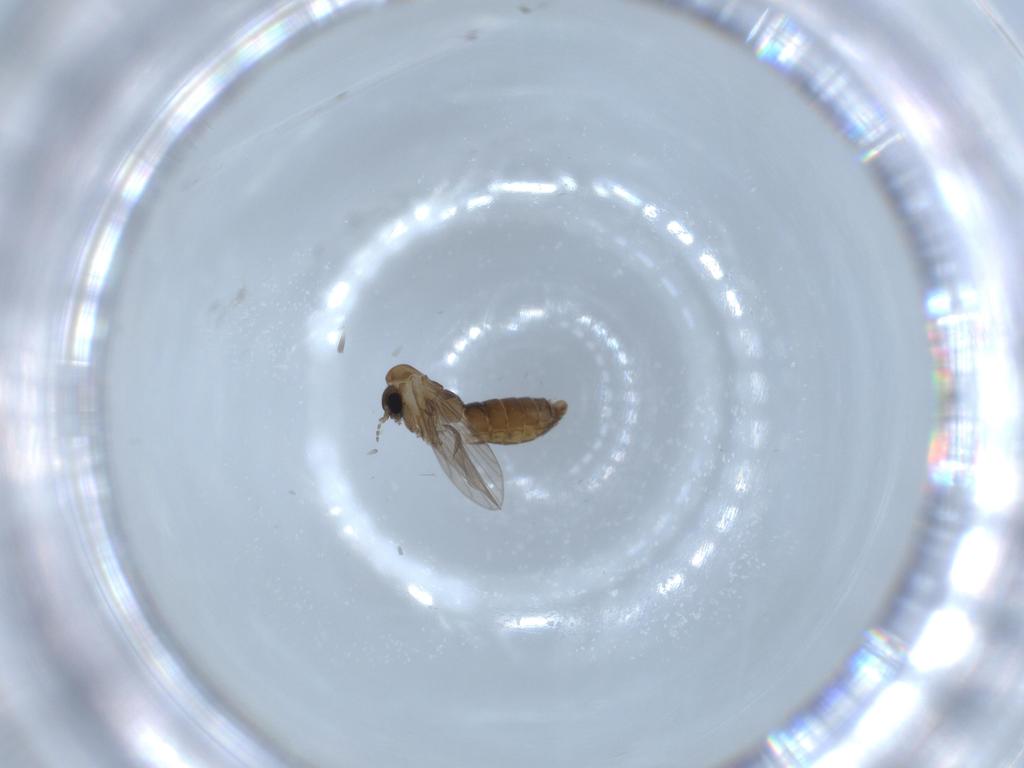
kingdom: Animalia
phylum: Arthropoda
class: Insecta
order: Diptera
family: Psychodidae
